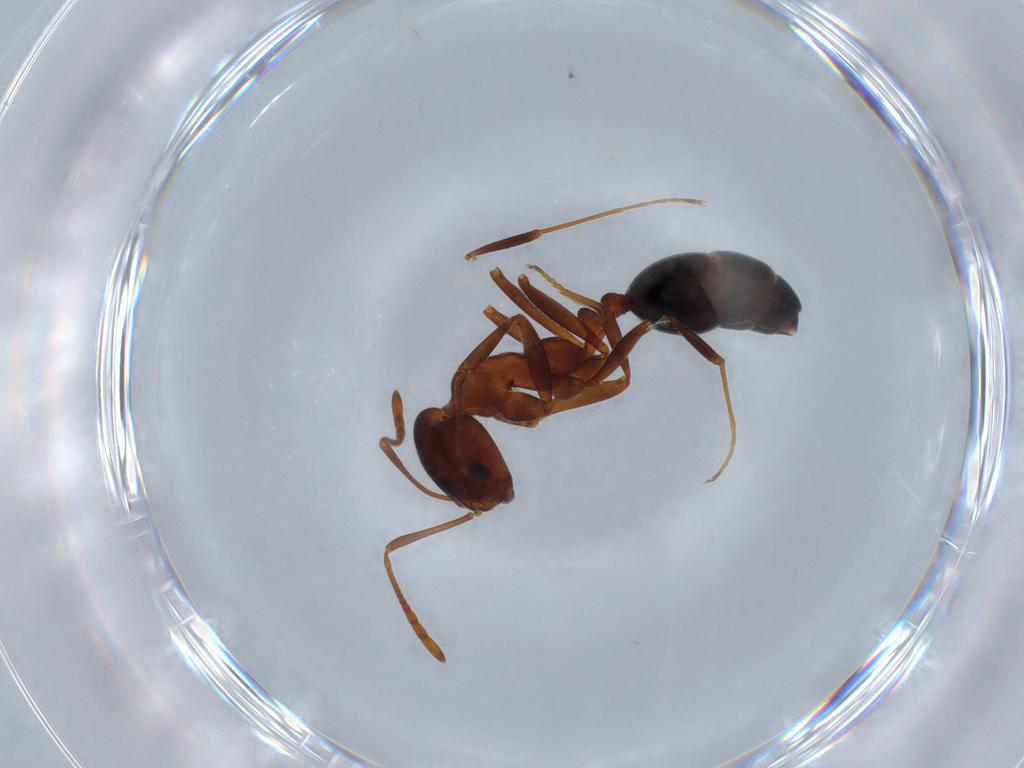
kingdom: Animalia
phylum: Arthropoda
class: Insecta
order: Hymenoptera
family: Formicidae
